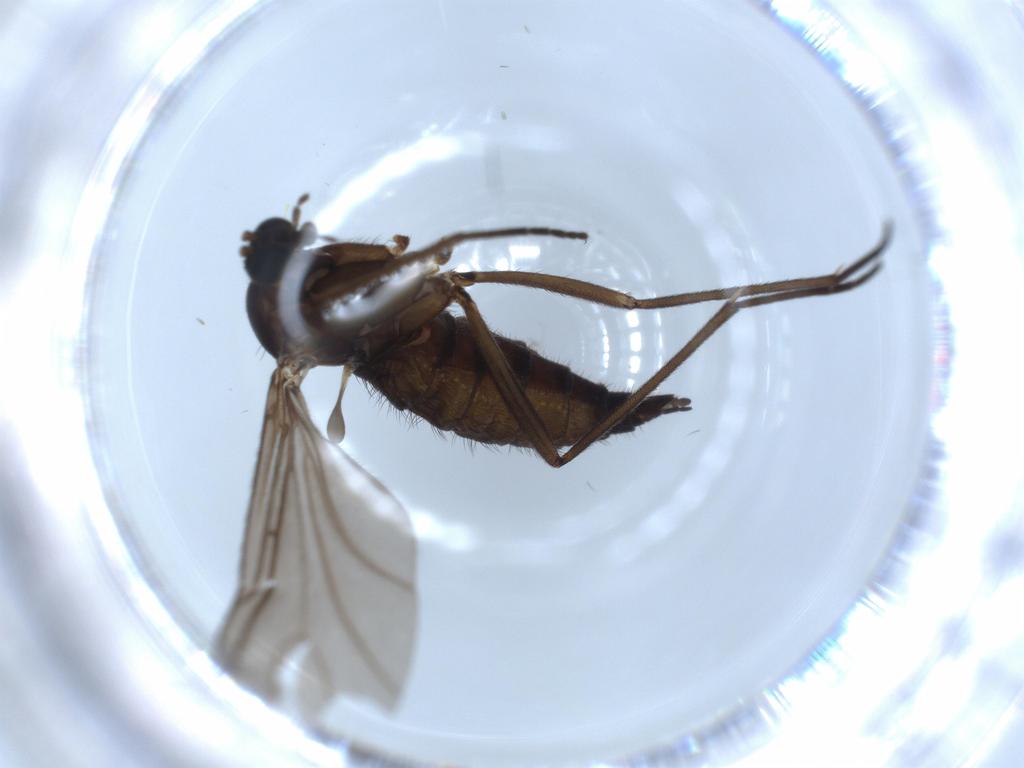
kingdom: Animalia
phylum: Arthropoda
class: Insecta
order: Diptera
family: Sciaridae
